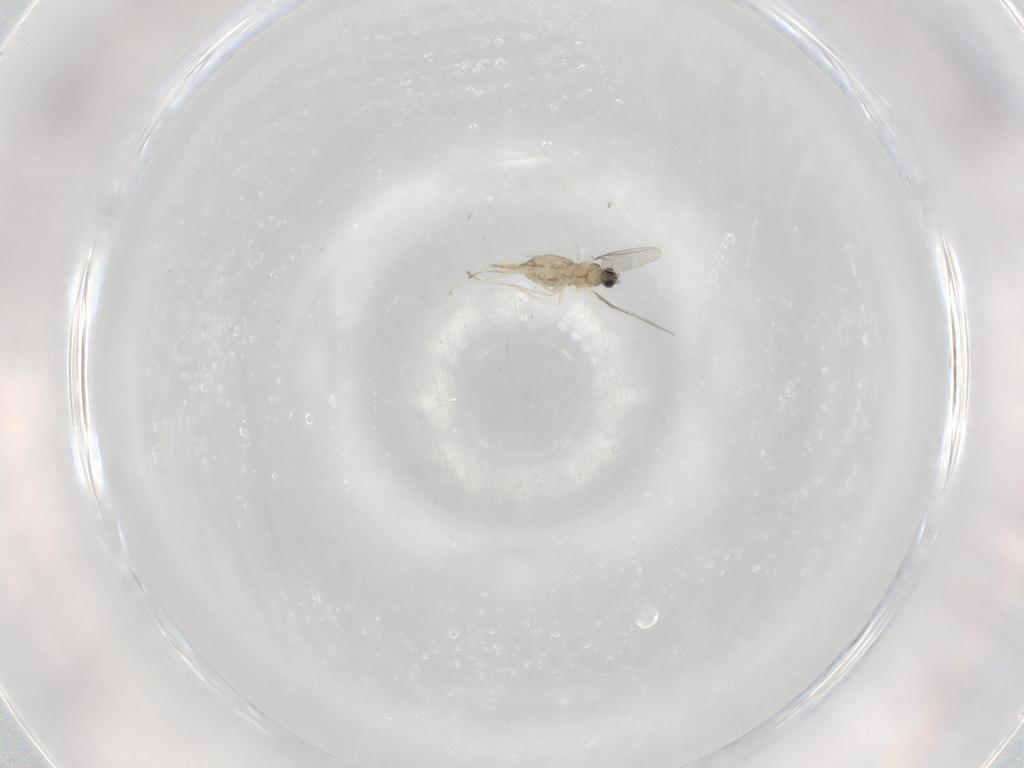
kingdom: Animalia
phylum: Arthropoda
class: Insecta
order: Diptera
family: Cecidomyiidae
